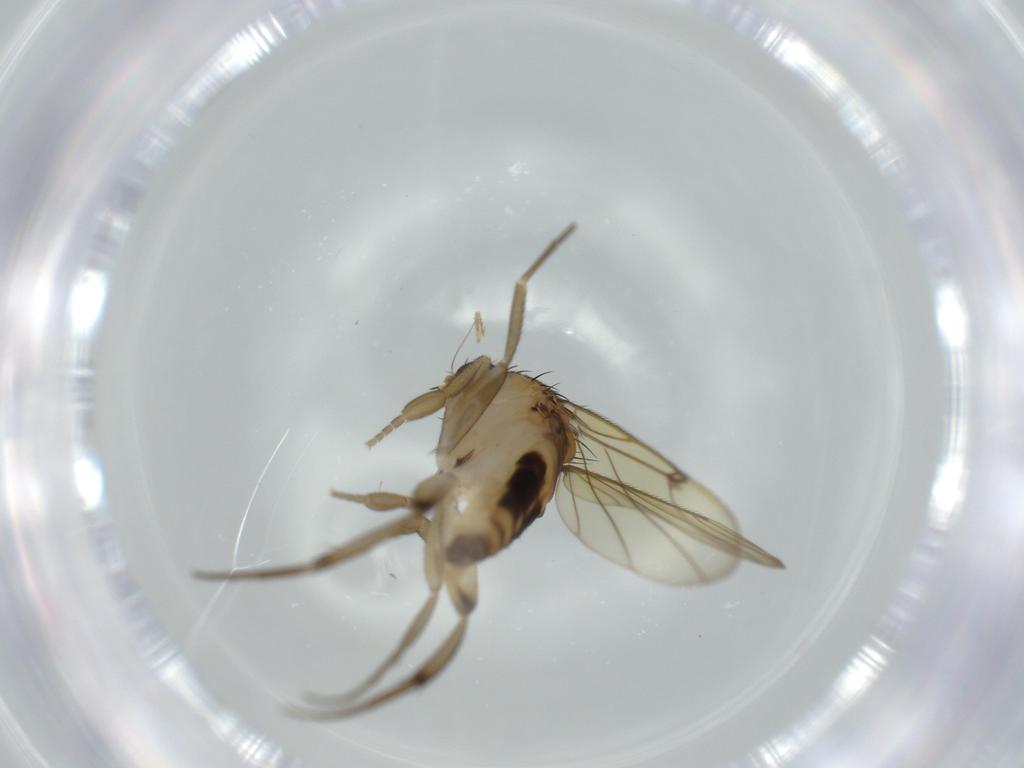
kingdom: Animalia
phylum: Arthropoda
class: Insecta
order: Diptera
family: Phoridae
